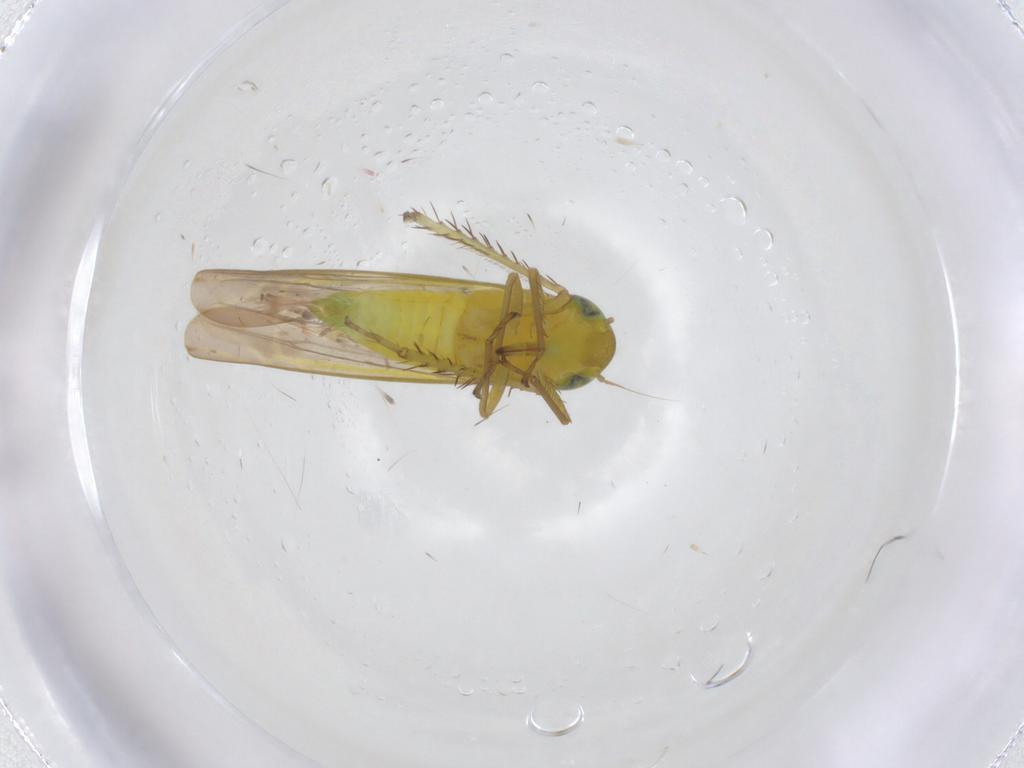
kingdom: Animalia
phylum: Arthropoda
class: Insecta
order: Hemiptera
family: Cicadellidae
